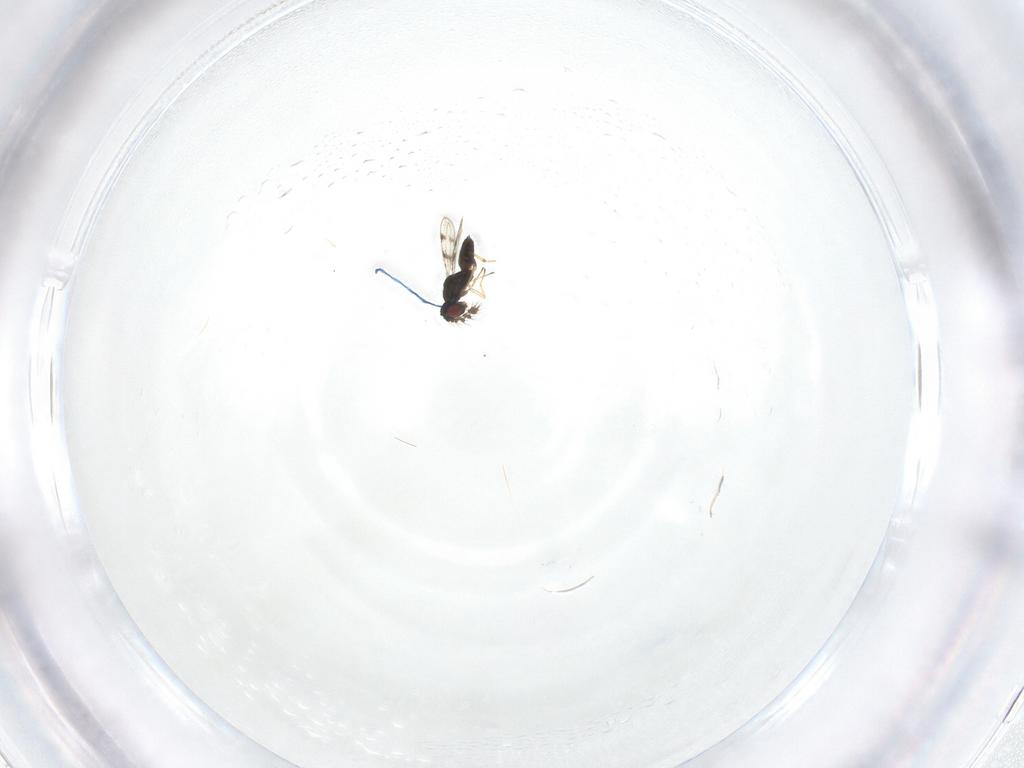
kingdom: Animalia
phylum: Arthropoda
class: Insecta
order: Hymenoptera
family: Eulophidae
